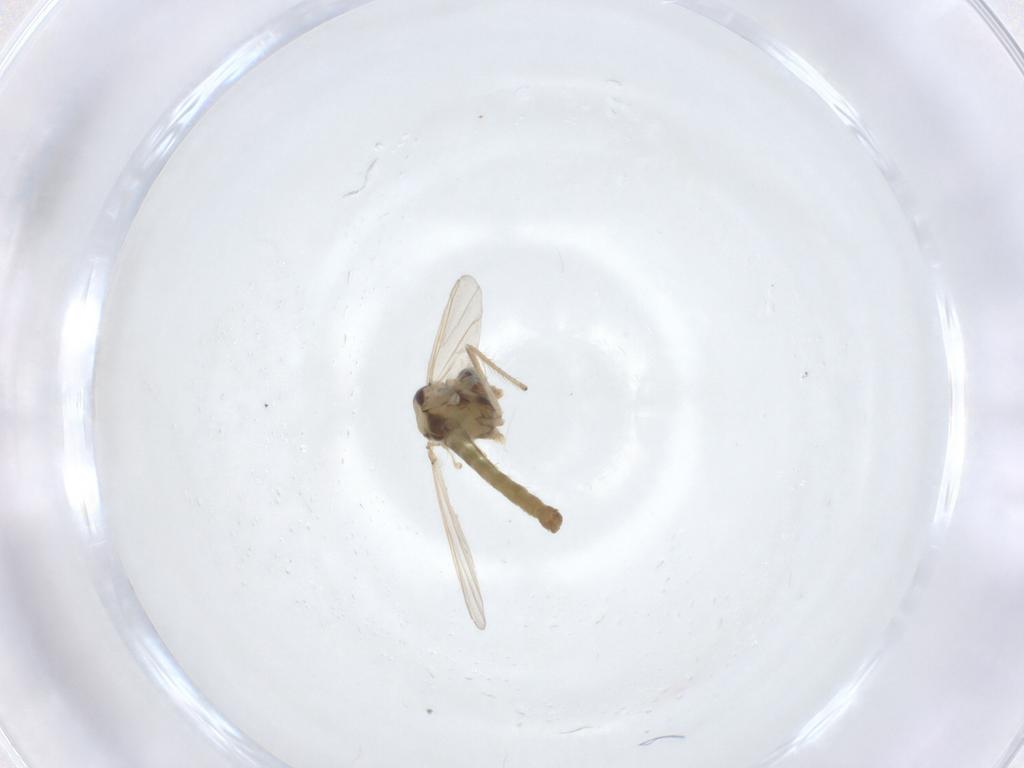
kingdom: Animalia
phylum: Arthropoda
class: Insecta
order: Diptera
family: Chironomidae
